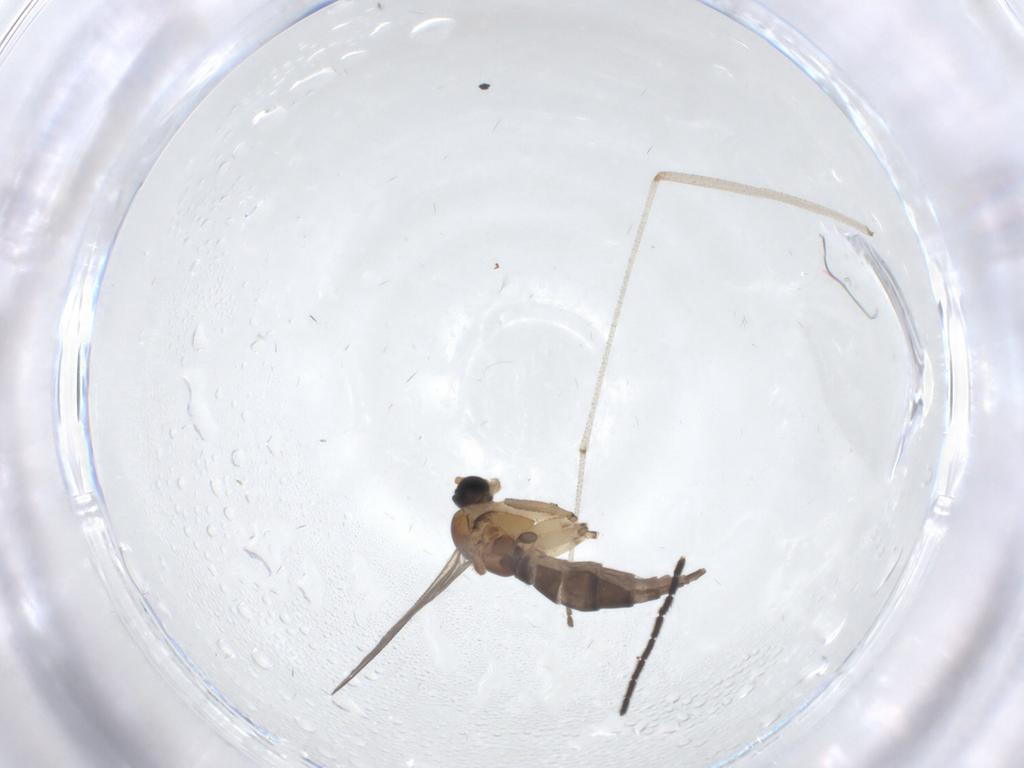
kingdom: Animalia
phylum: Arthropoda
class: Insecta
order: Diptera
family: Sciaridae
